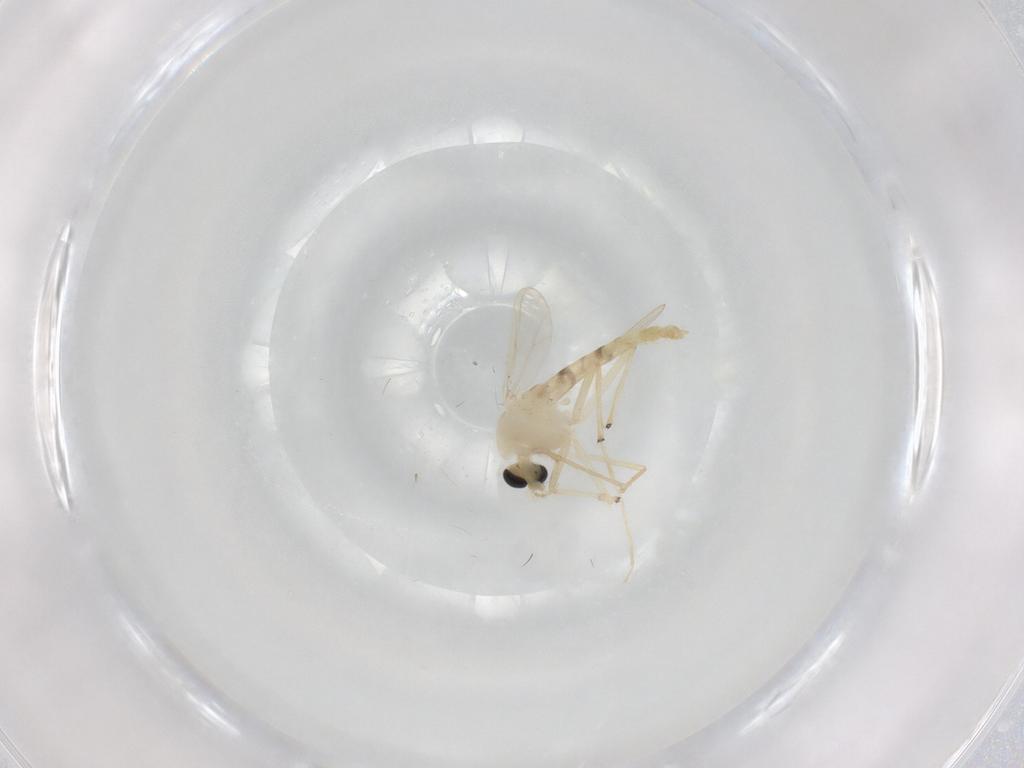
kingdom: Animalia
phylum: Arthropoda
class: Insecta
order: Diptera
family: Chironomidae
